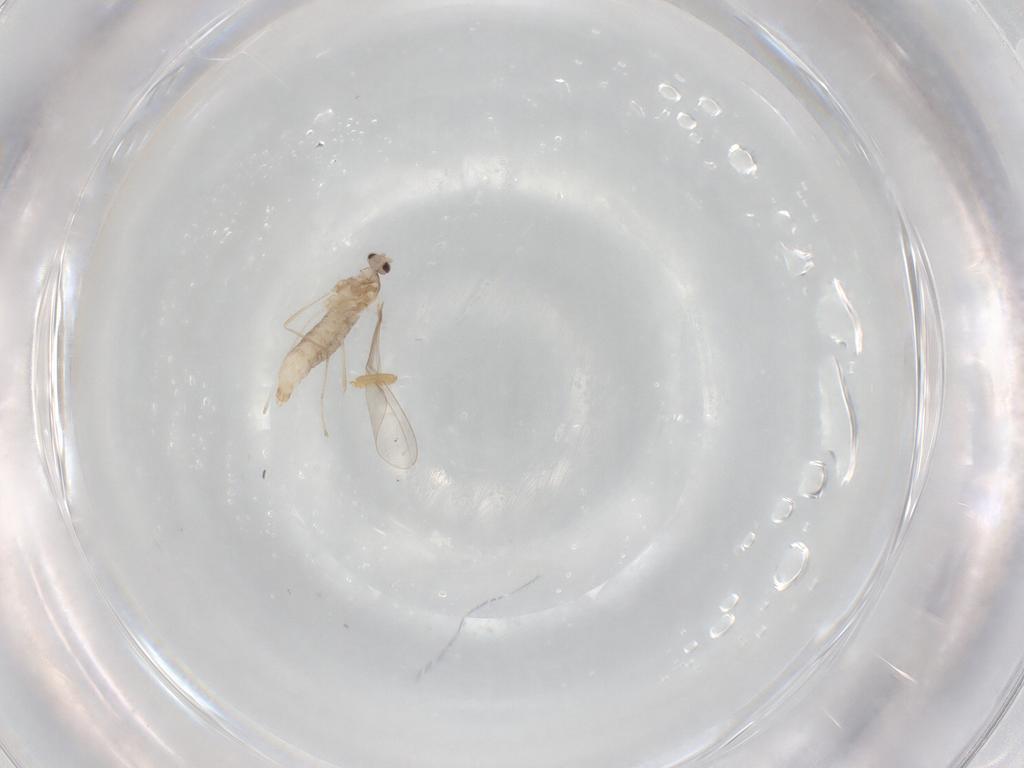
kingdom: Animalia
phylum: Arthropoda
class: Insecta
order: Diptera
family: Cecidomyiidae
